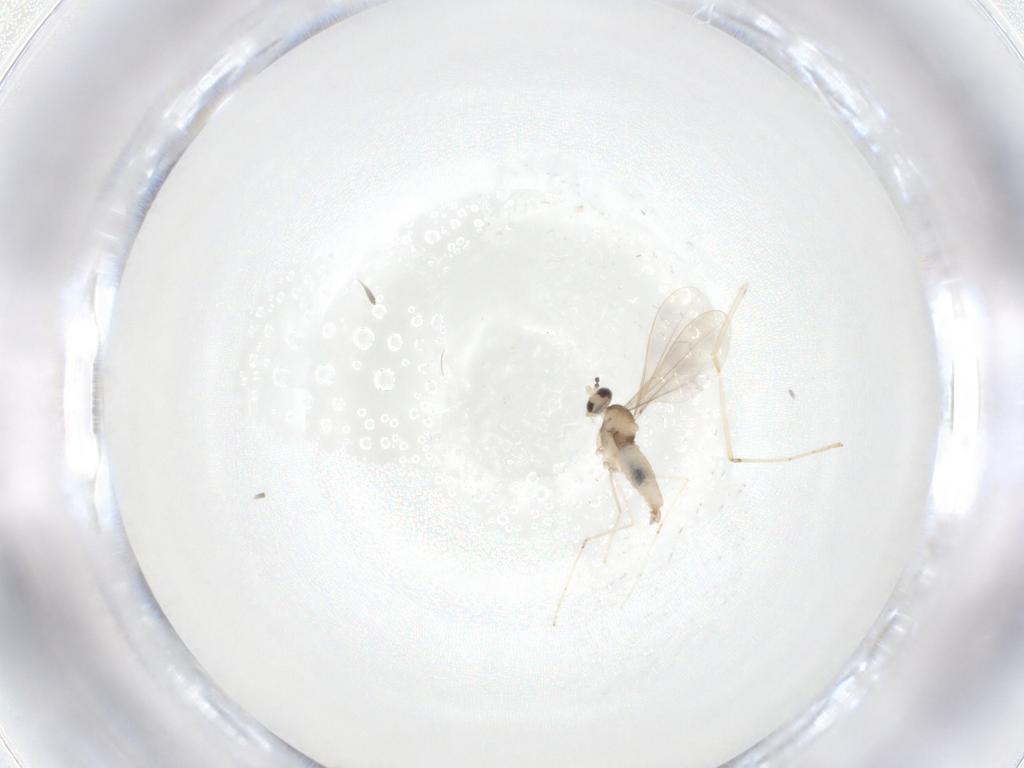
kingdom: Animalia
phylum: Arthropoda
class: Insecta
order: Diptera
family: Cecidomyiidae
